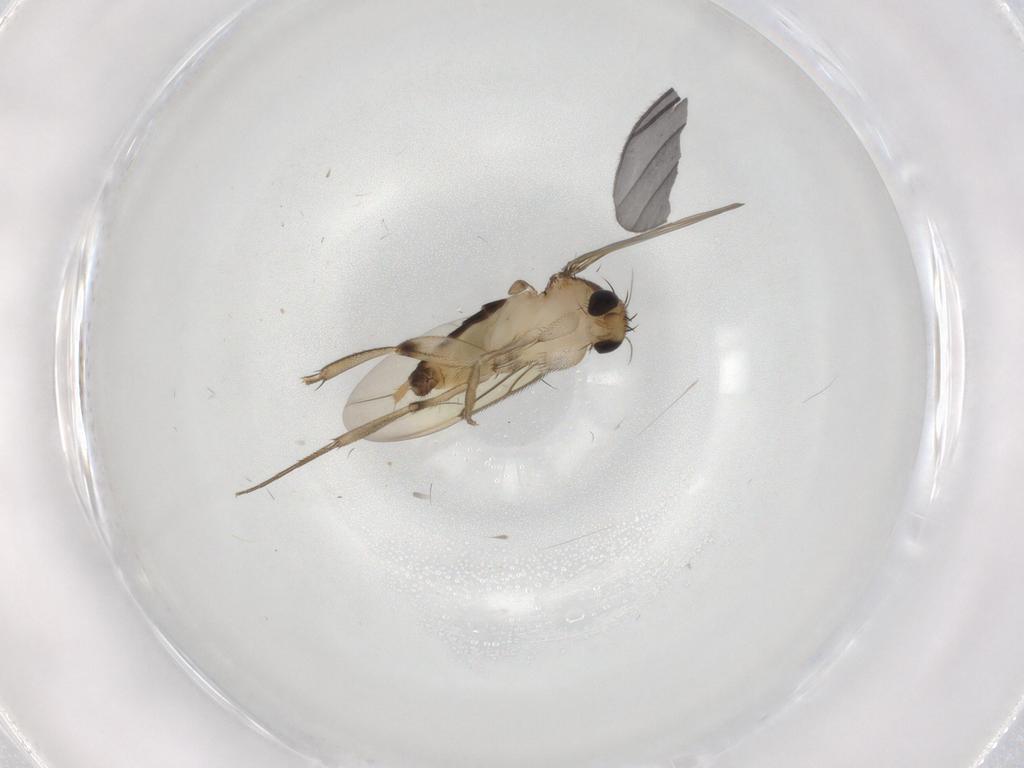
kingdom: Animalia
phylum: Arthropoda
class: Insecta
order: Diptera
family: Phoridae
